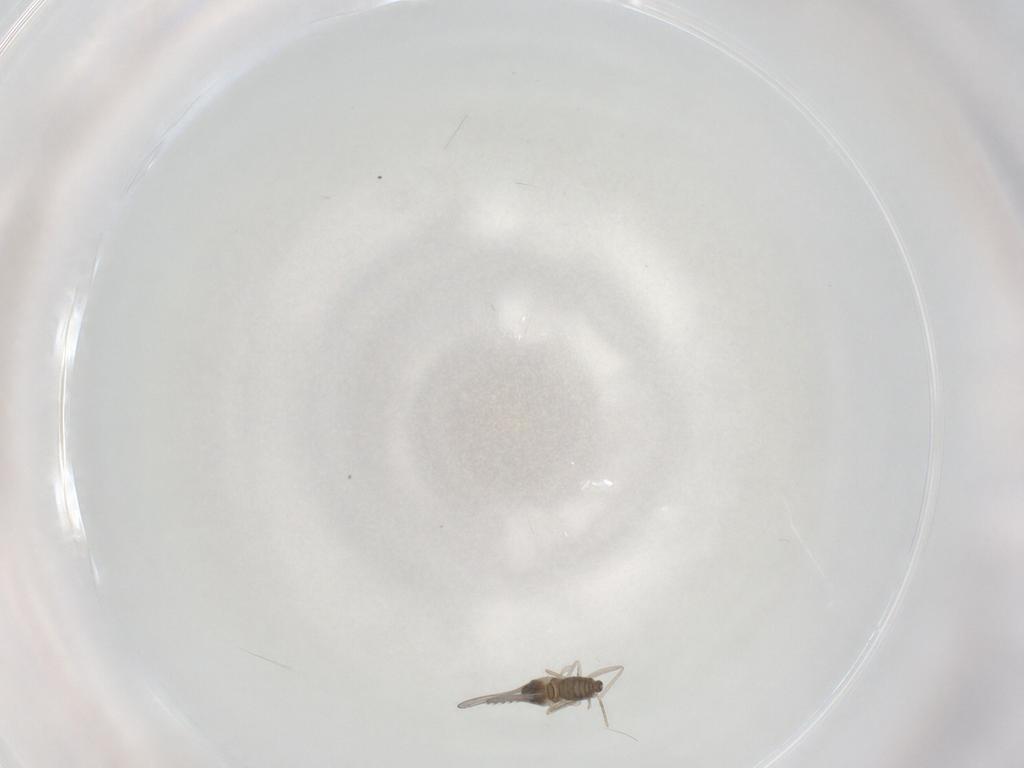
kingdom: Animalia
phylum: Arthropoda
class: Insecta
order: Diptera
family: Cecidomyiidae
